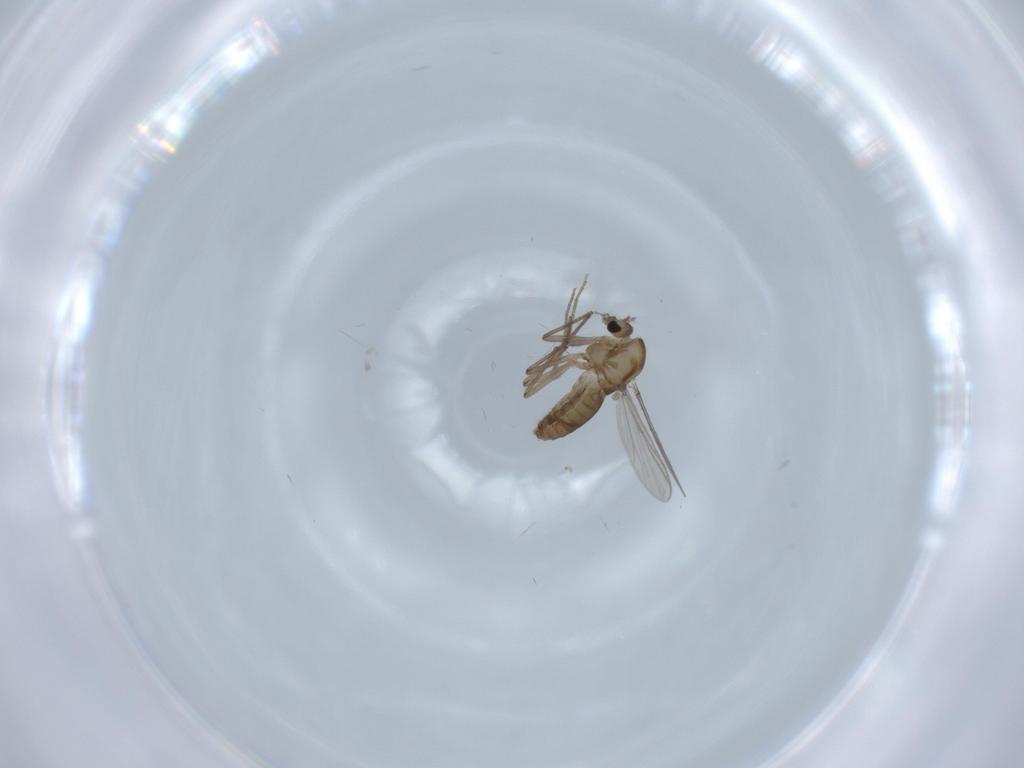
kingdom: Animalia
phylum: Arthropoda
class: Insecta
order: Diptera
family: Chironomidae
